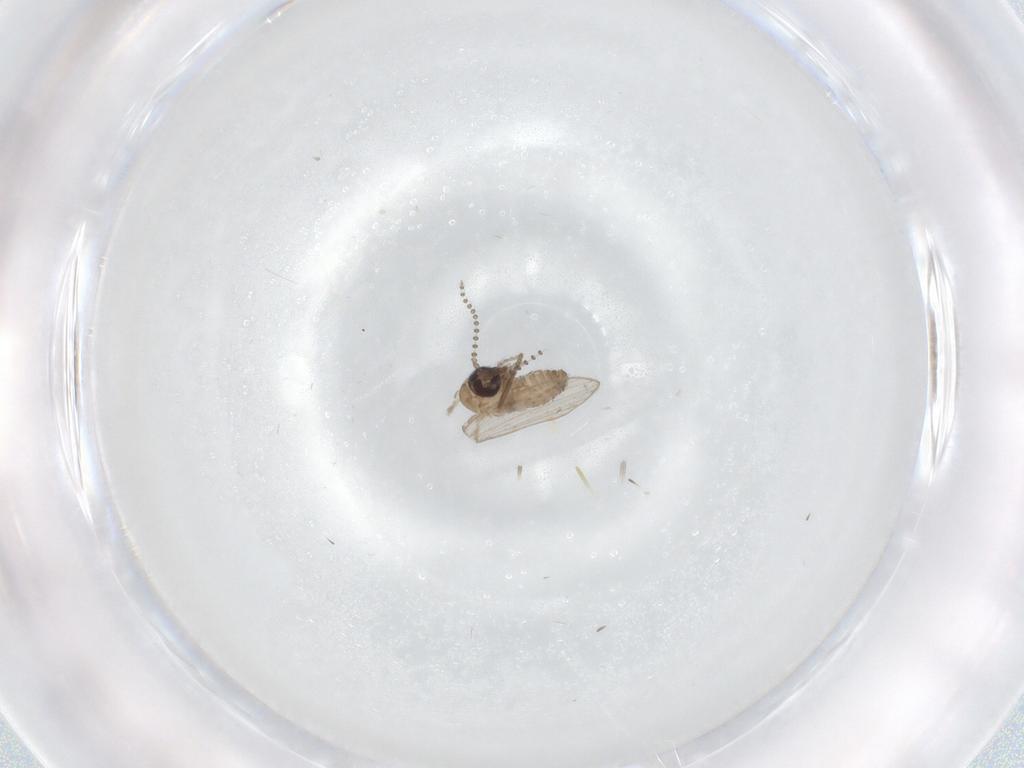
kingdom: Animalia
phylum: Arthropoda
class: Insecta
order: Diptera
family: Psychodidae
